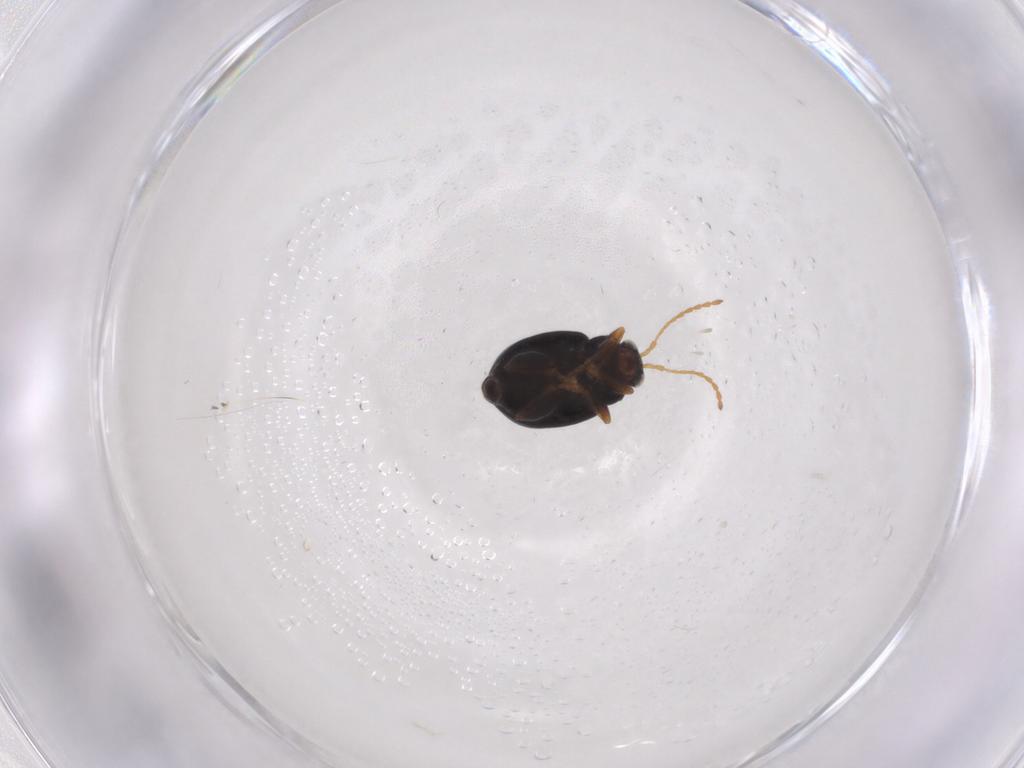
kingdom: Animalia
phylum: Arthropoda
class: Insecta
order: Coleoptera
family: Chrysomelidae
